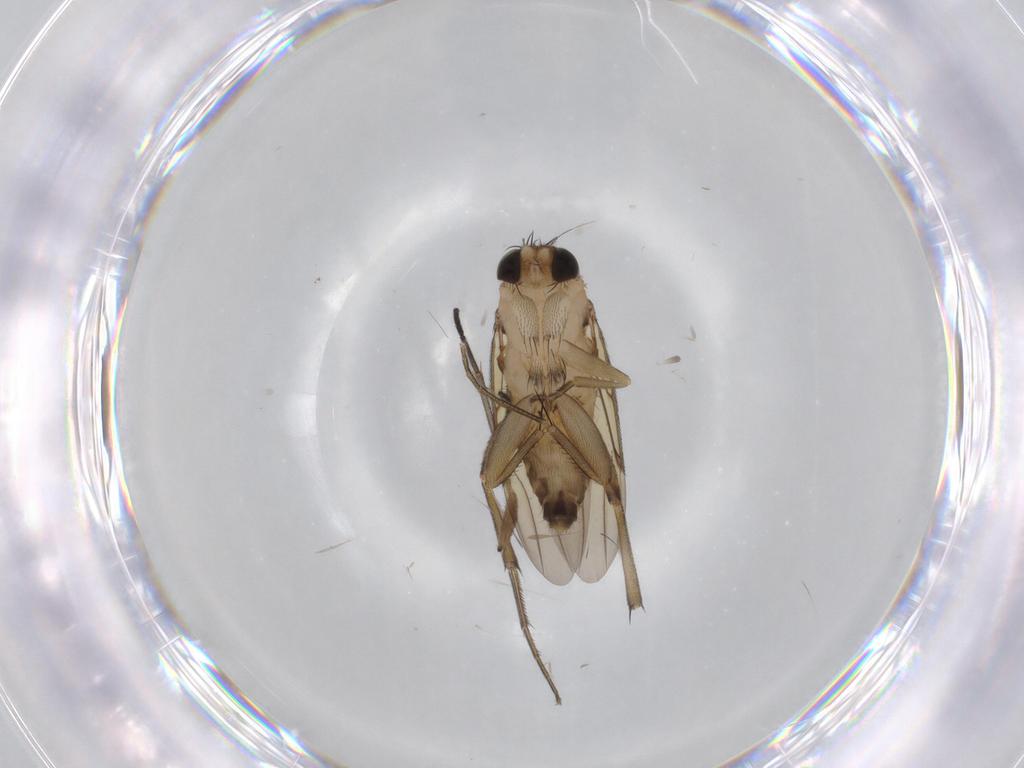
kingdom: Animalia
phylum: Arthropoda
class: Insecta
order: Diptera
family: Phoridae
